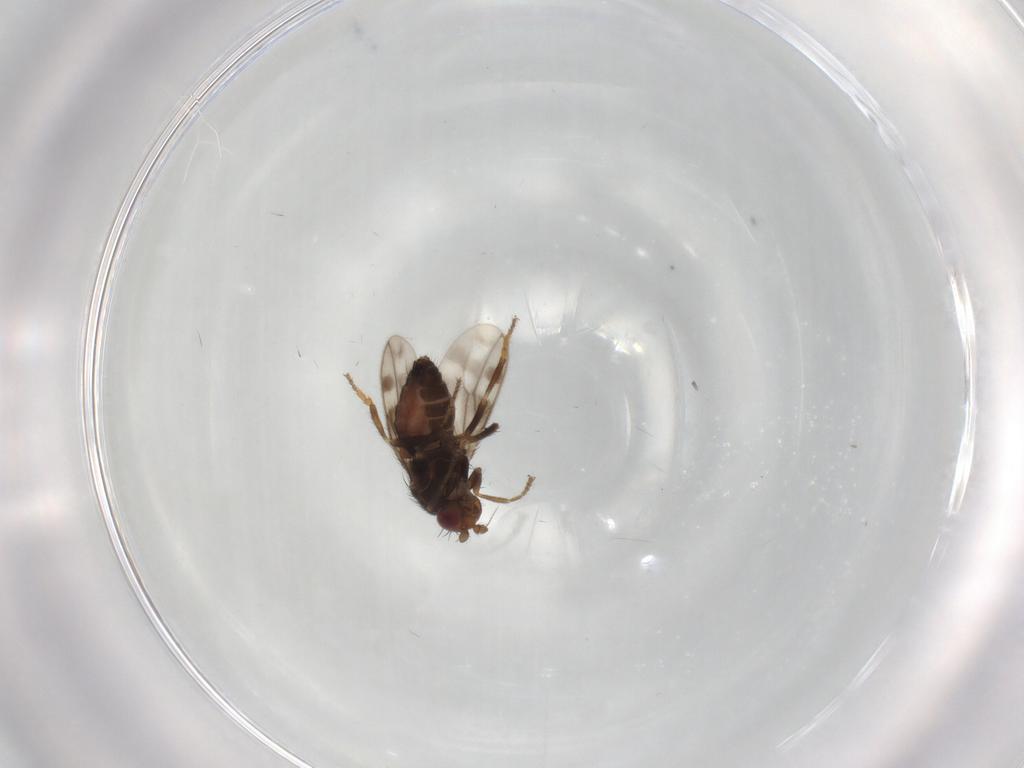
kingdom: Animalia
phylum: Arthropoda
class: Insecta
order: Diptera
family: Sphaeroceridae
